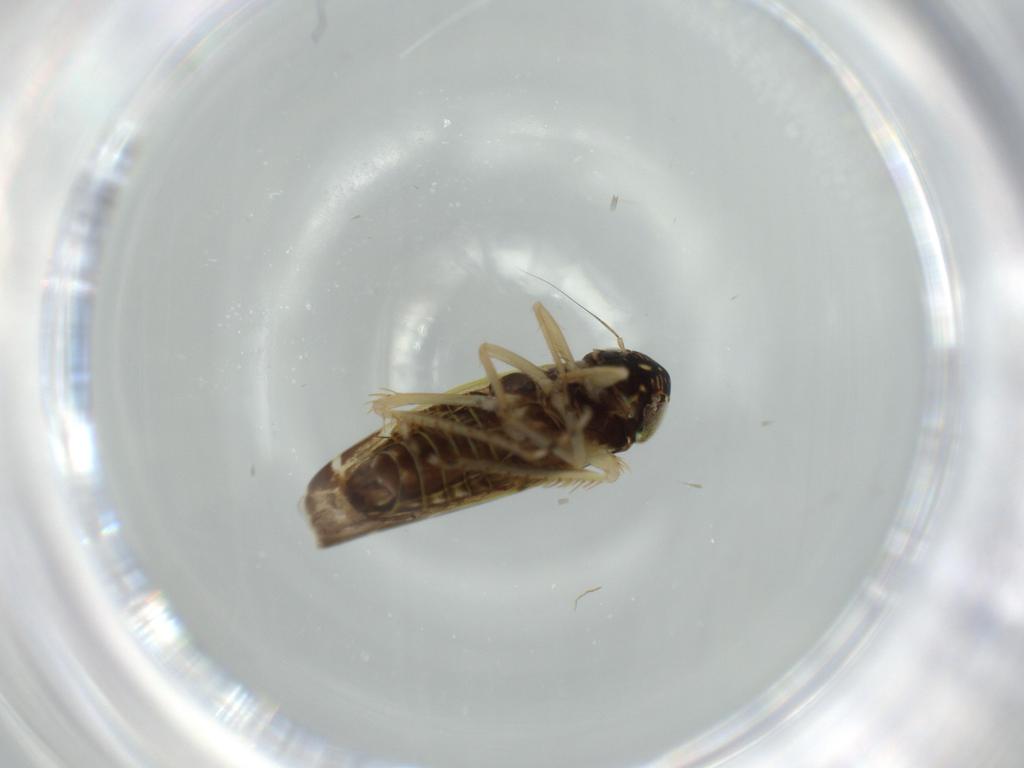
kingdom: Animalia
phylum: Arthropoda
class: Insecta
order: Hemiptera
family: Cicadellidae
